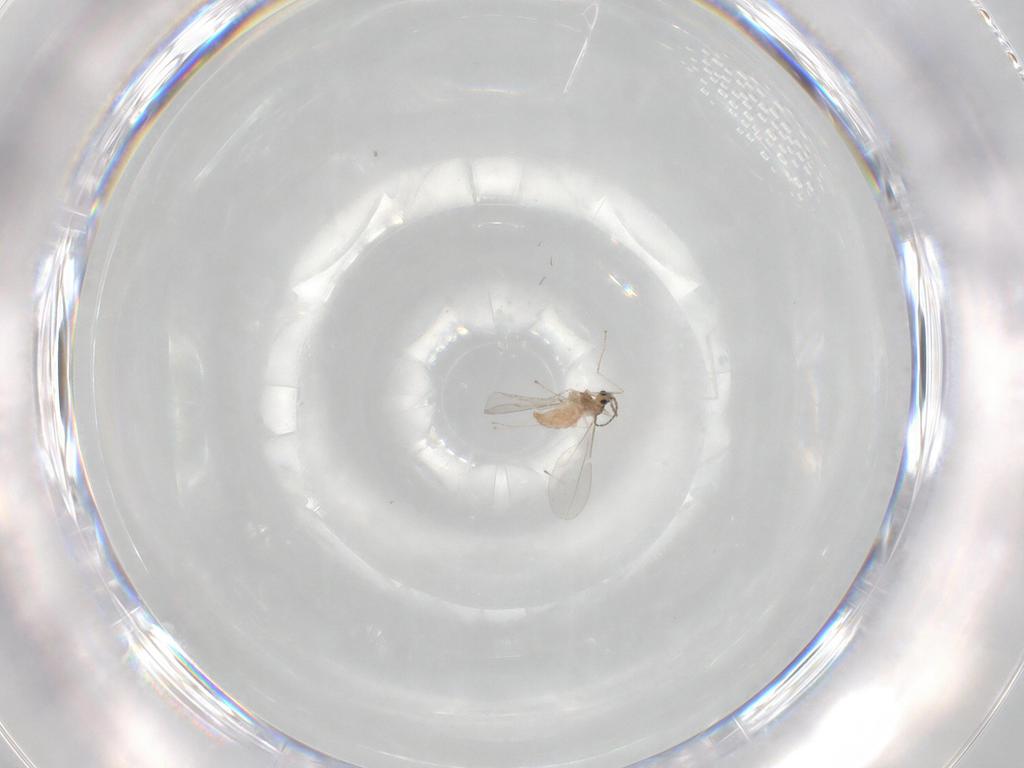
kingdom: Animalia
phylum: Arthropoda
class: Insecta
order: Diptera
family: Cecidomyiidae
